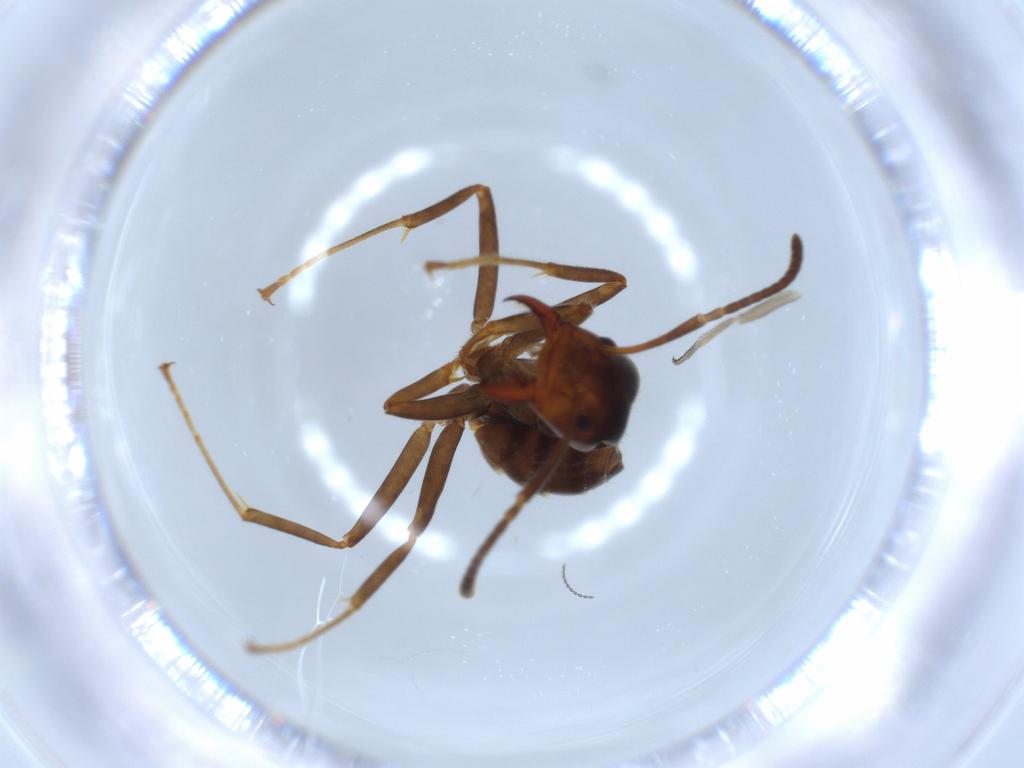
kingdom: Animalia
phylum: Arthropoda
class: Insecta
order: Hymenoptera
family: Formicidae
